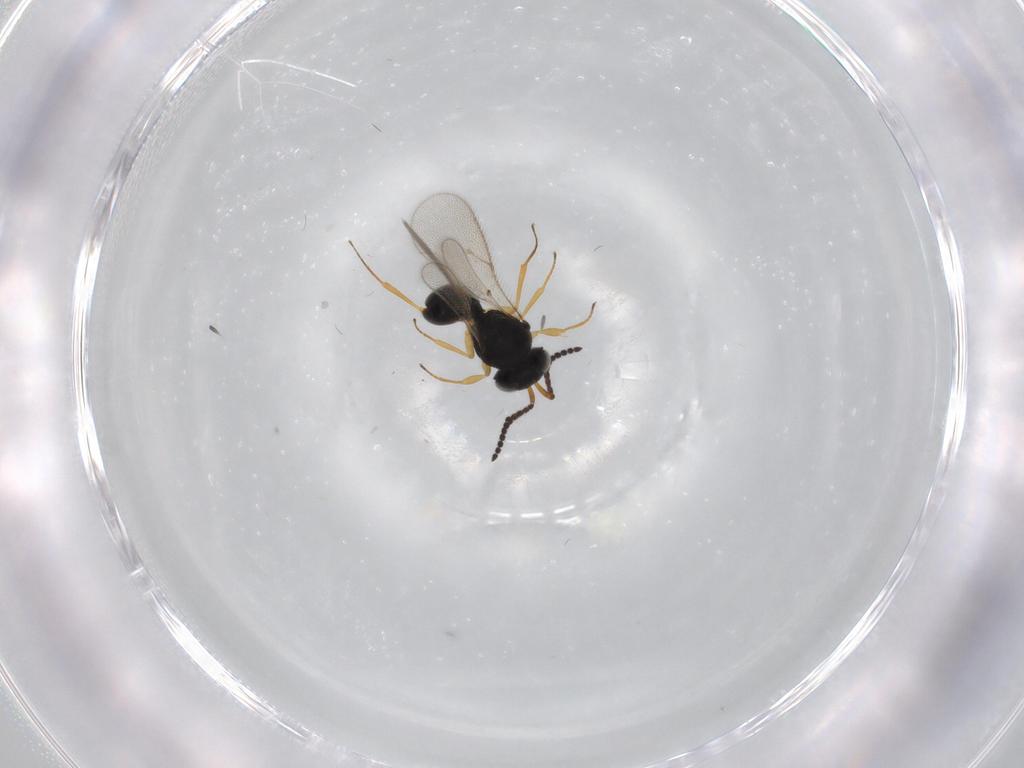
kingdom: Animalia
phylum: Arthropoda
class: Insecta
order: Hymenoptera
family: Scelionidae
